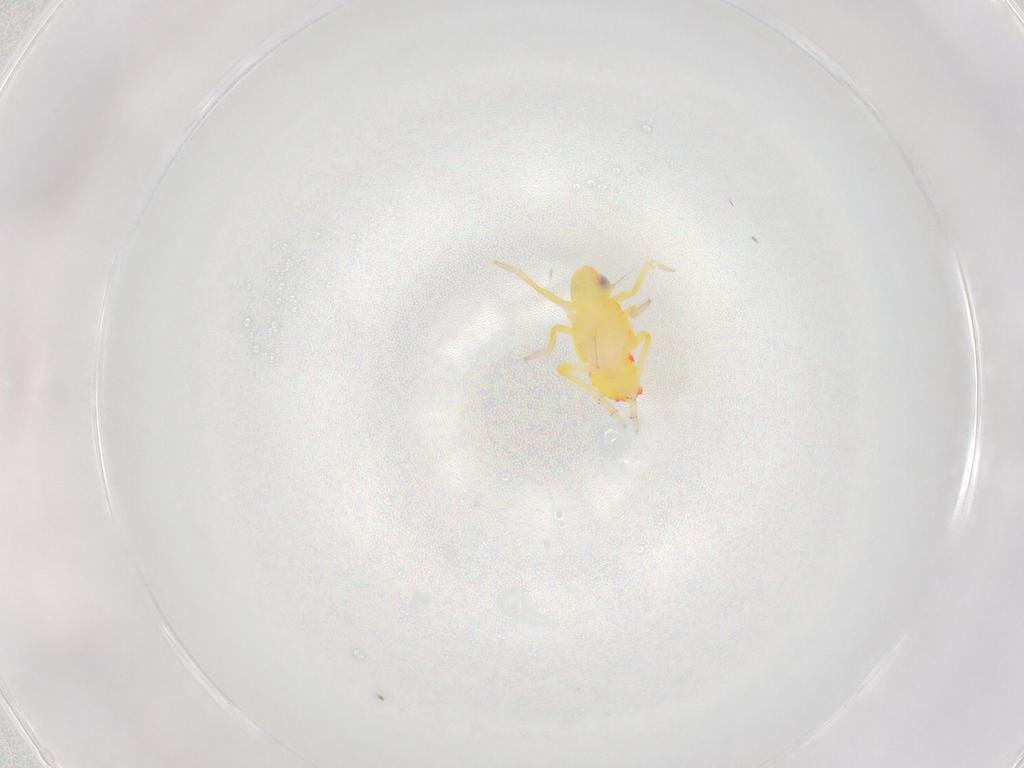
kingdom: Animalia
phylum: Arthropoda
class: Insecta
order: Hemiptera
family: Tropiduchidae
